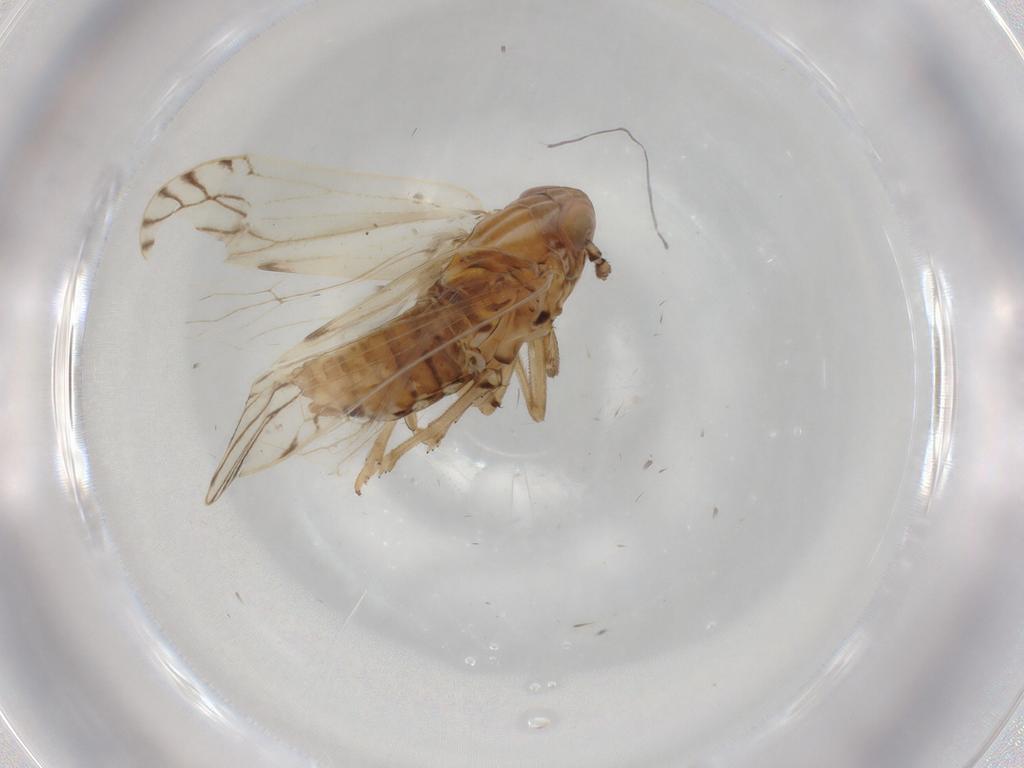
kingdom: Animalia
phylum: Arthropoda
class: Insecta
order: Hemiptera
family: Delphacidae
